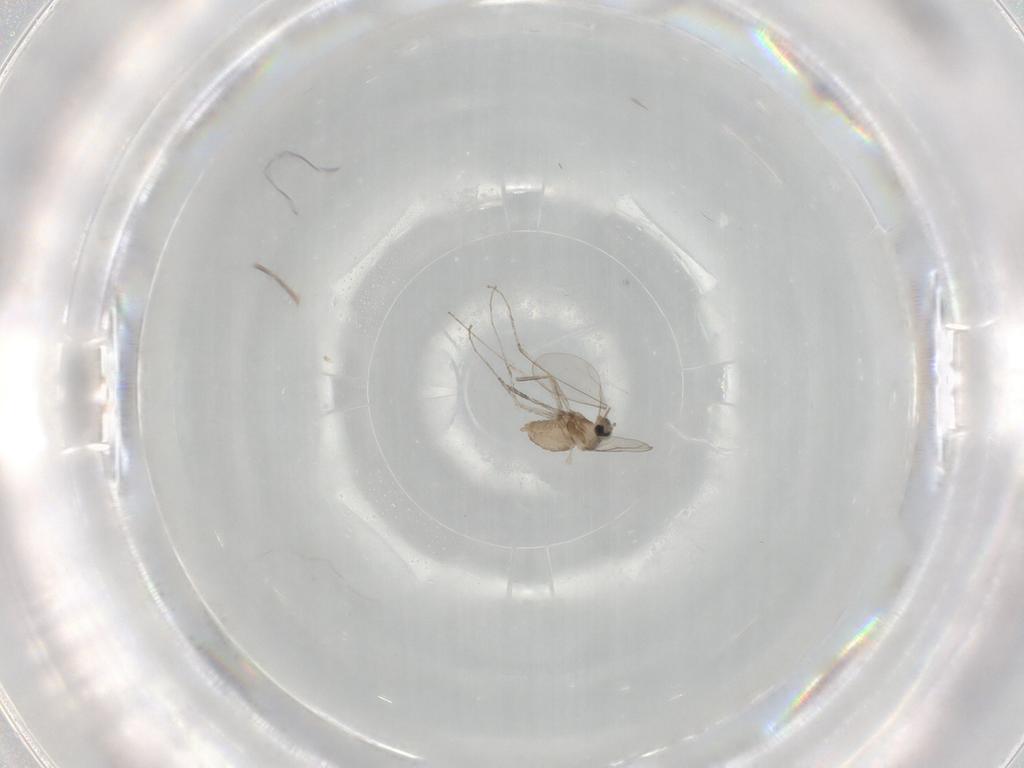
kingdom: Animalia
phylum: Arthropoda
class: Insecta
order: Diptera
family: Cecidomyiidae
